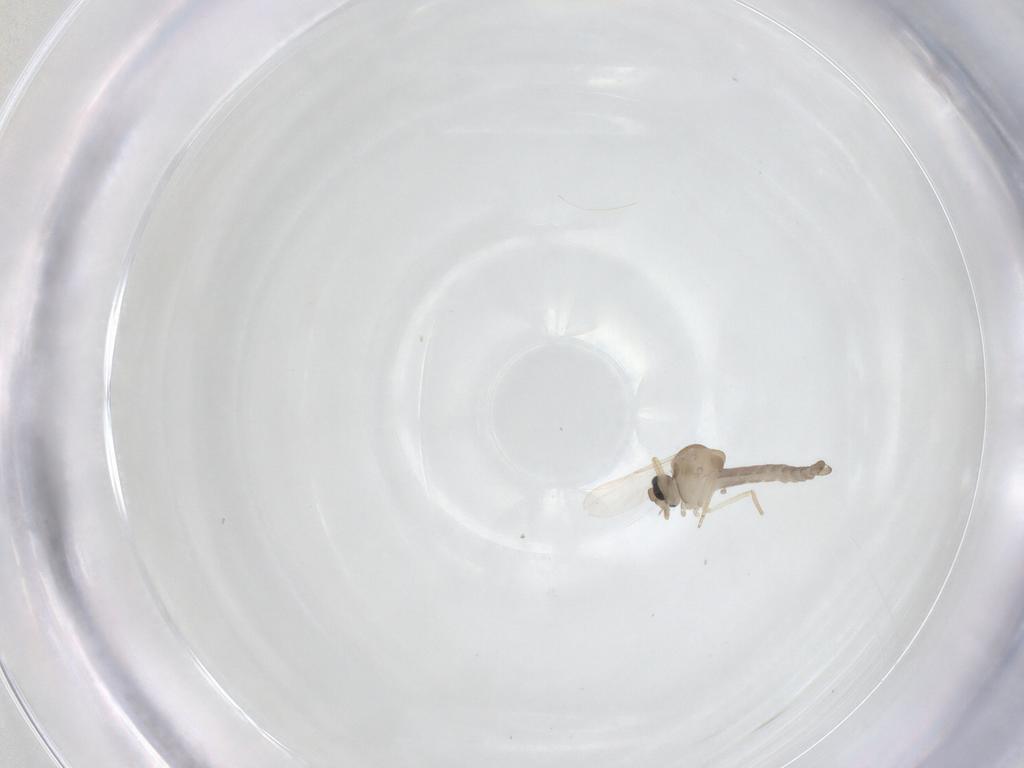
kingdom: Animalia
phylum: Arthropoda
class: Insecta
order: Diptera
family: Ceratopogonidae
